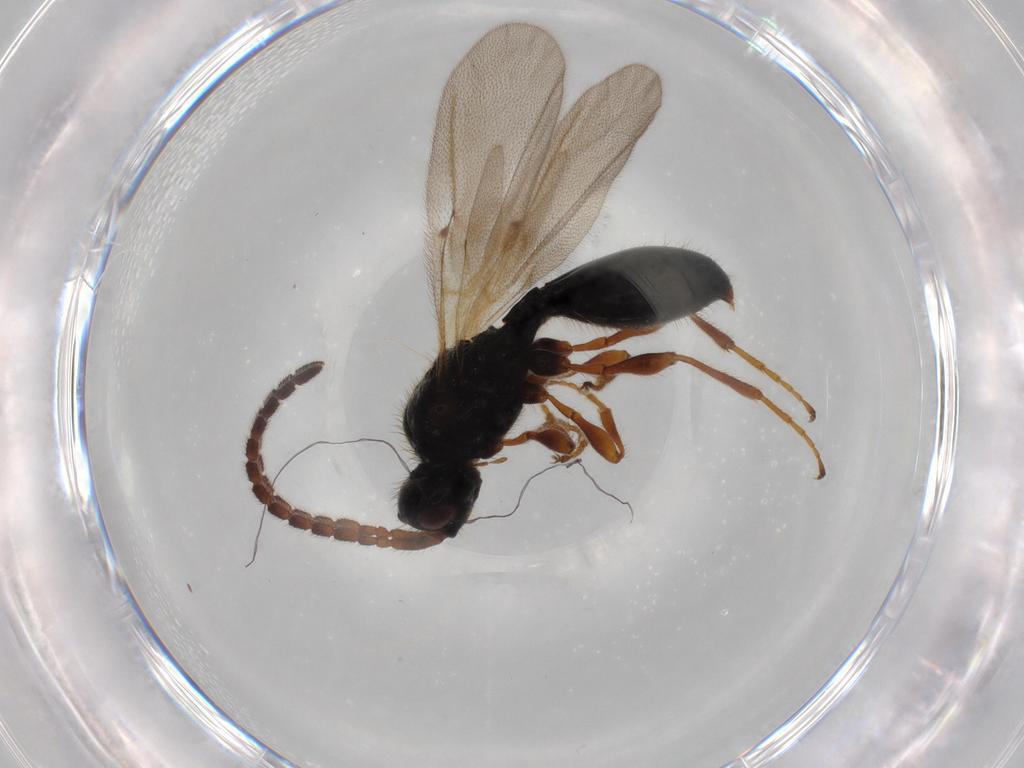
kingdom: Animalia
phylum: Arthropoda
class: Insecta
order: Hymenoptera
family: Diapriidae
